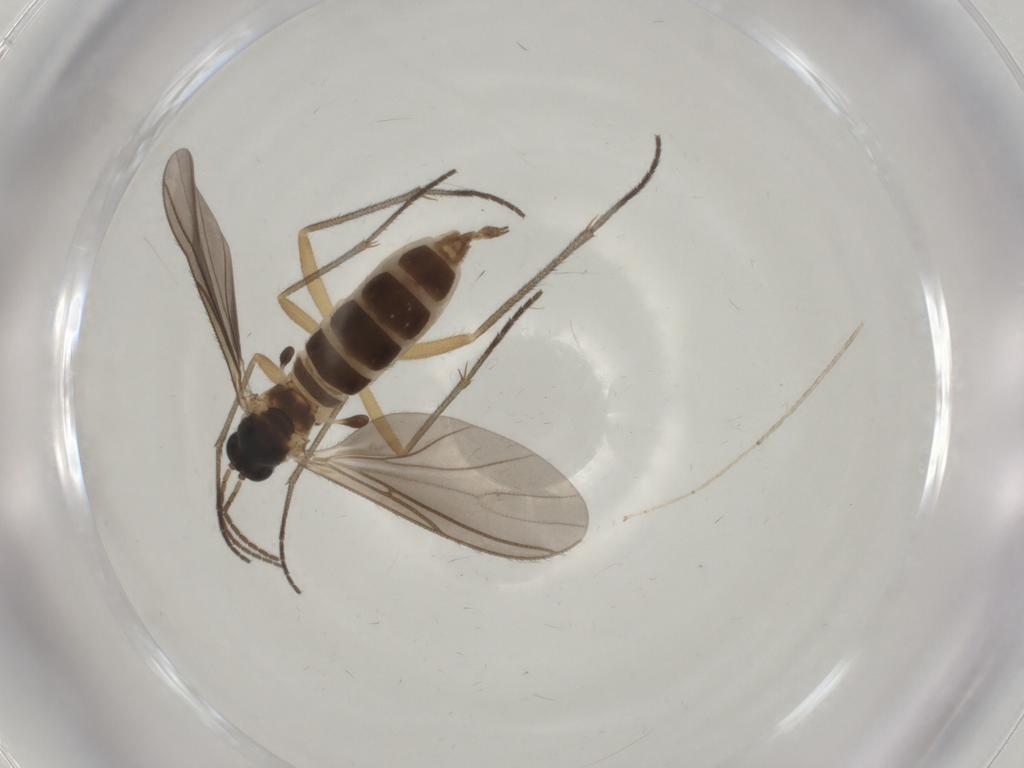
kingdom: Animalia
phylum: Arthropoda
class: Insecta
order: Diptera
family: Sciaridae
